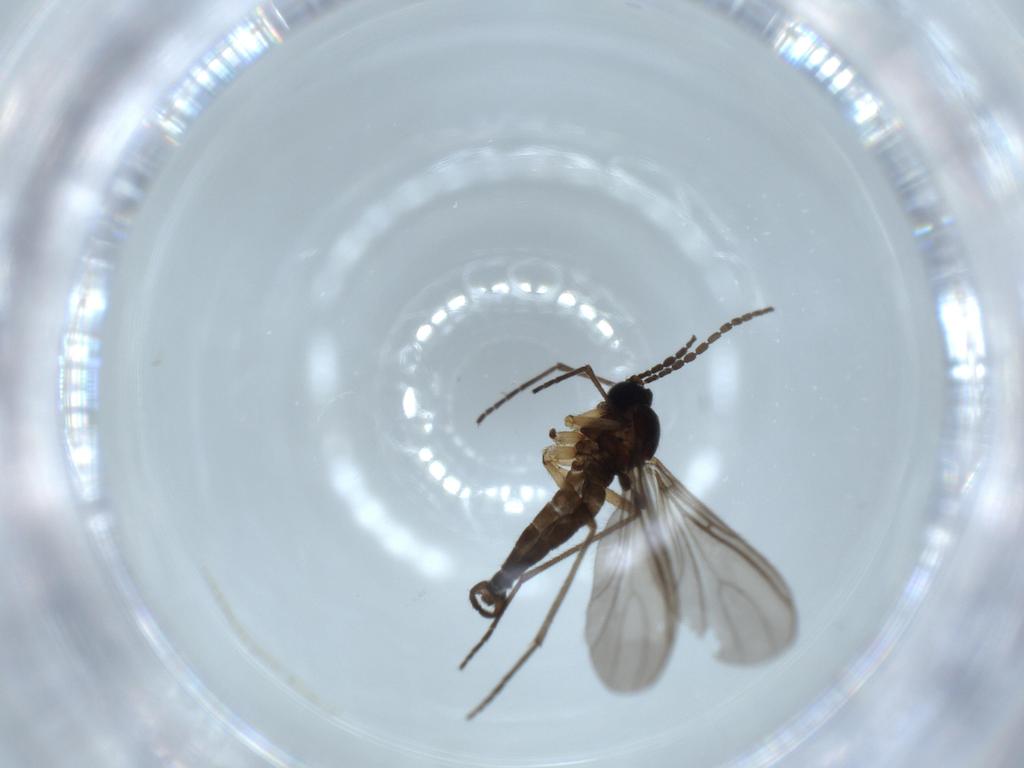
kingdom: Animalia
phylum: Arthropoda
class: Insecta
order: Diptera
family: Sciaridae
